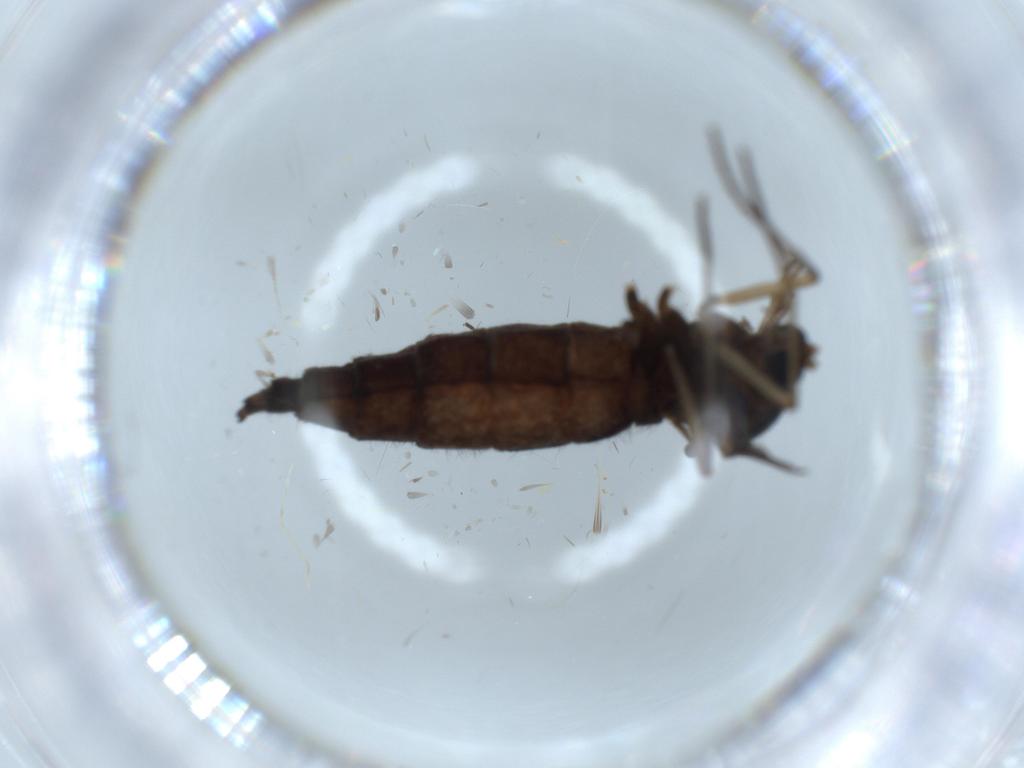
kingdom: Animalia
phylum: Arthropoda
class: Insecta
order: Diptera
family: Sciaridae
